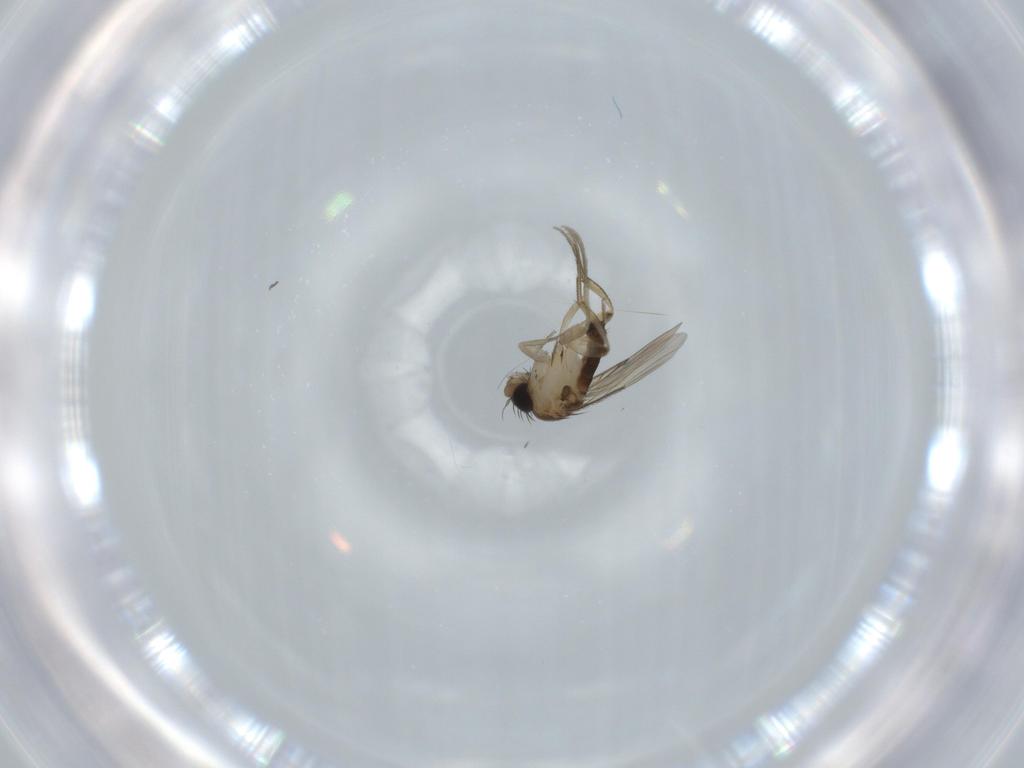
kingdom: Animalia
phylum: Arthropoda
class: Insecta
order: Diptera
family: Phoridae
